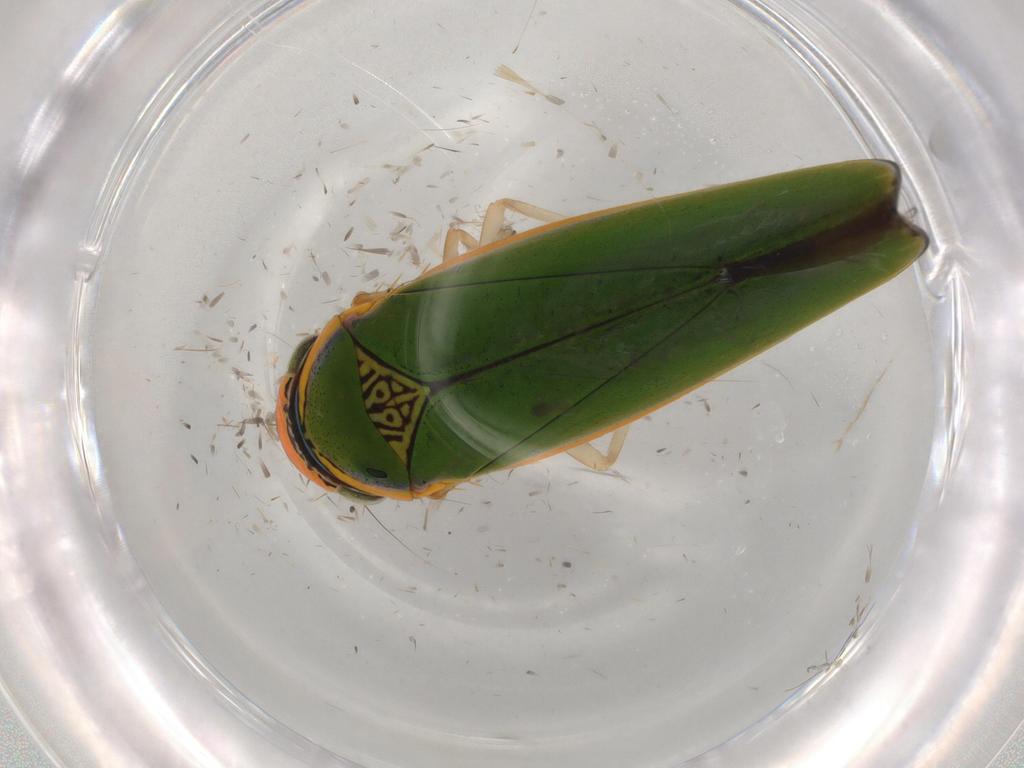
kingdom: Animalia
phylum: Arthropoda
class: Insecta
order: Hemiptera
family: Cicadellidae
